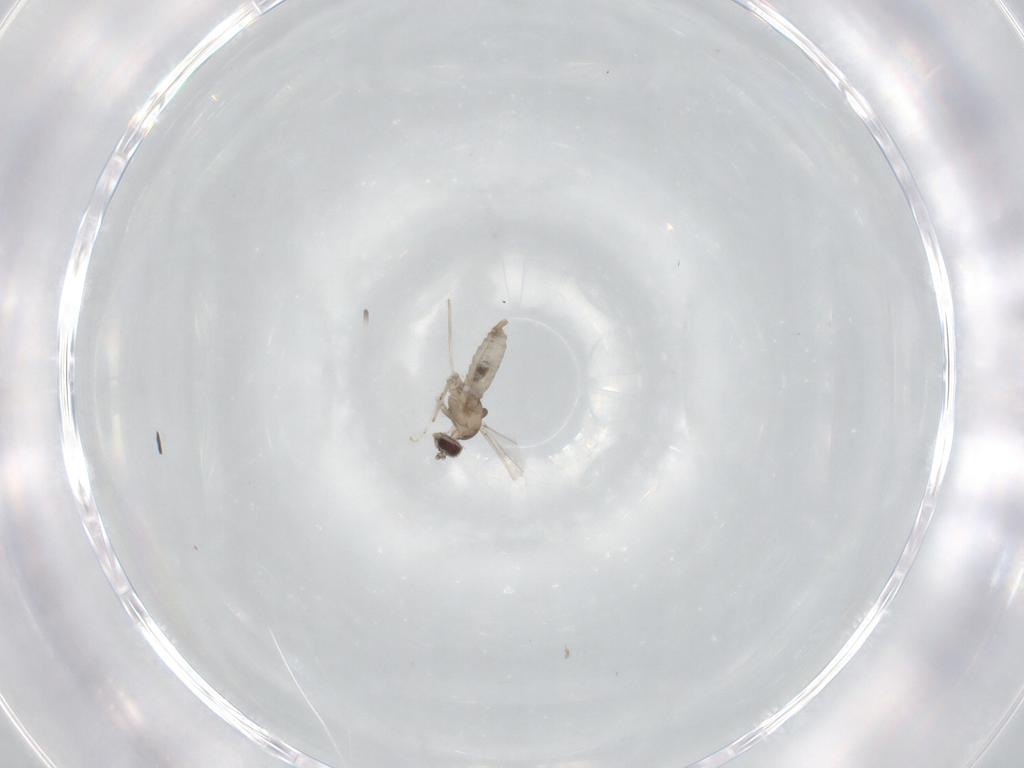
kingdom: Animalia
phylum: Arthropoda
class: Insecta
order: Diptera
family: Cecidomyiidae
